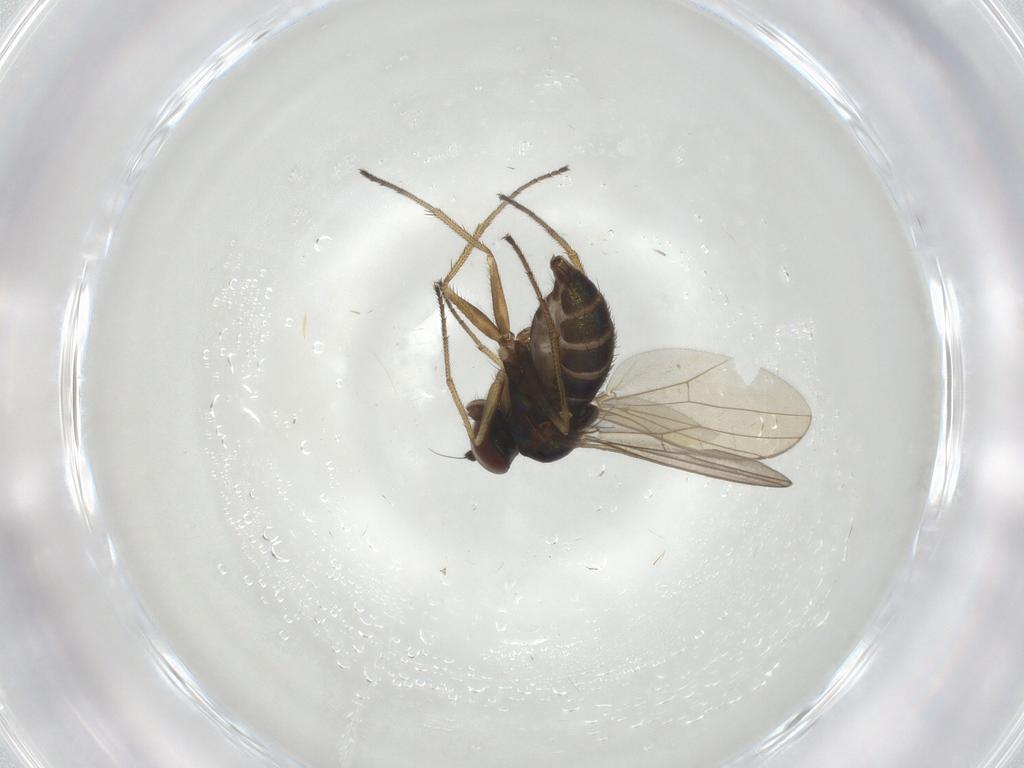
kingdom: Animalia
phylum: Arthropoda
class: Insecta
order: Diptera
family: Dolichopodidae
